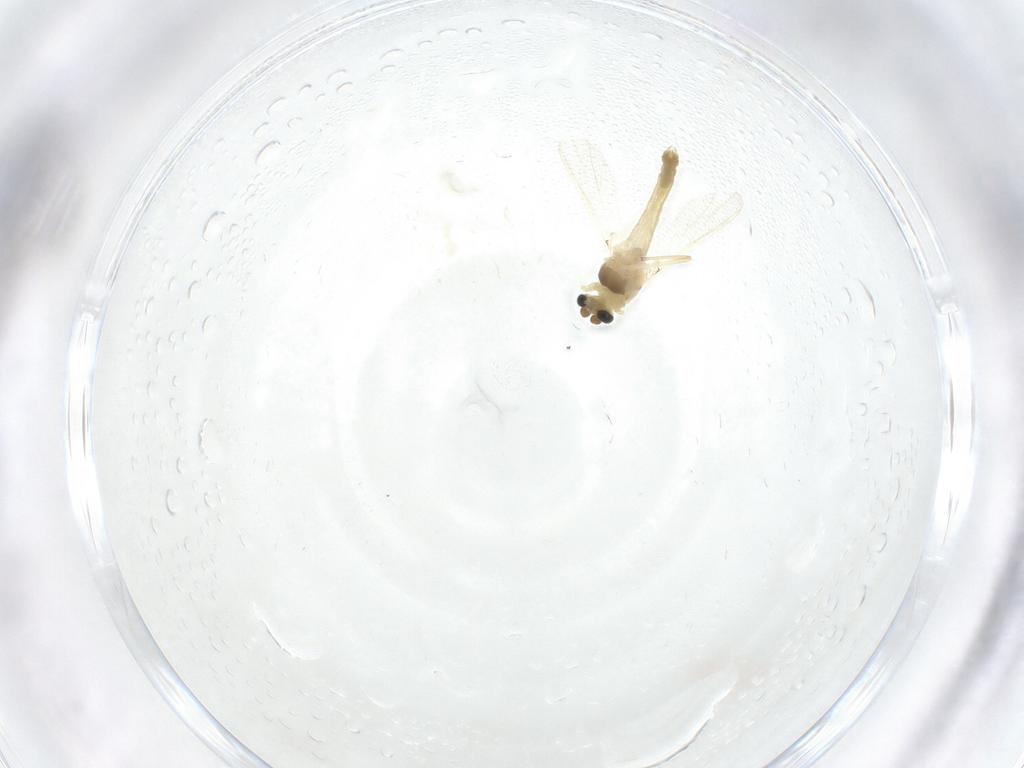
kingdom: Animalia
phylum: Arthropoda
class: Insecta
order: Diptera
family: Chironomidae
